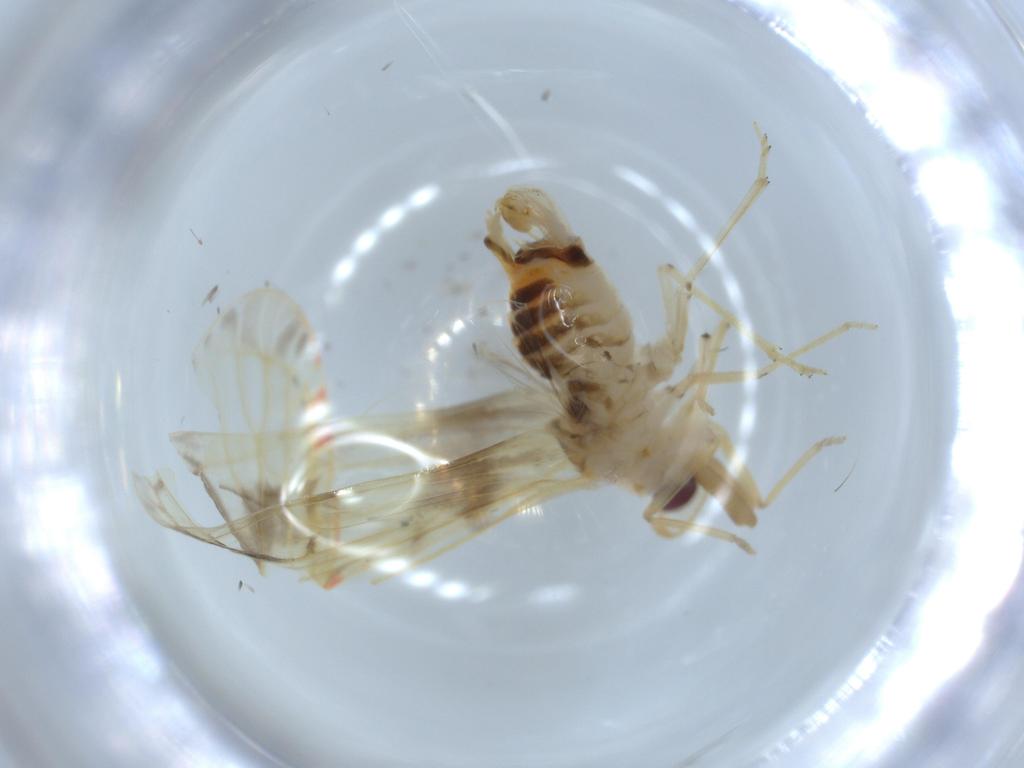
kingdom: Animalia
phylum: Arthropoda
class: Insecta
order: Hemiptera
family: Derbidae
